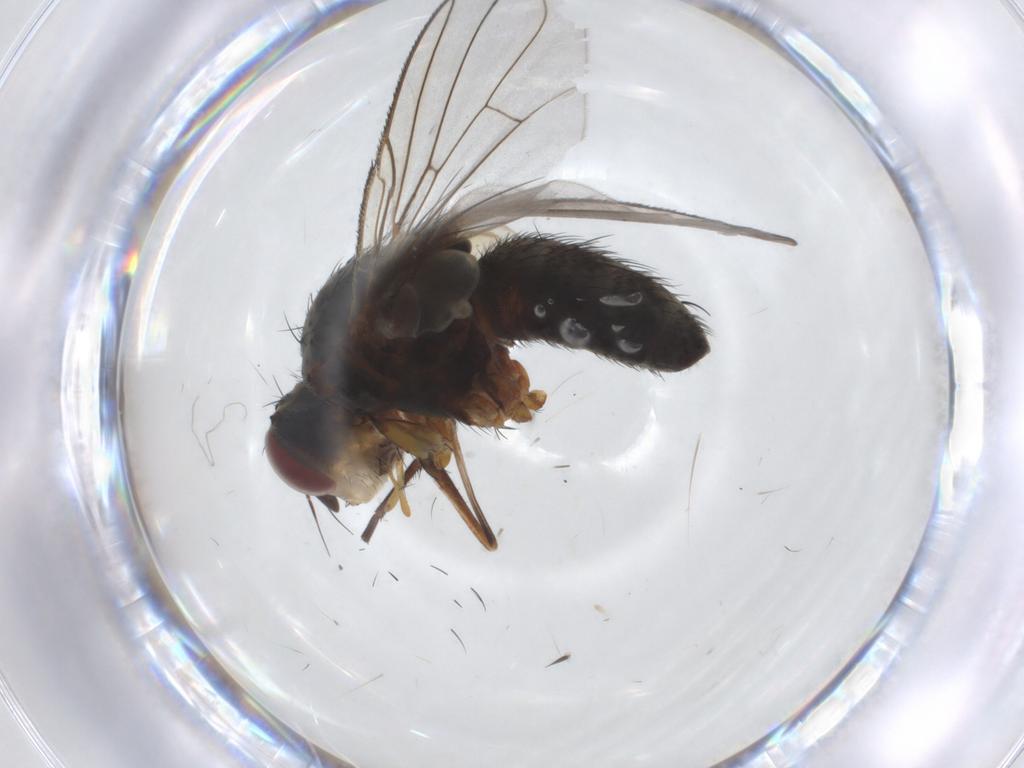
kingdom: Animalia
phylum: Arthropoda
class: Insecta
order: Diptera
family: Tachinidae
